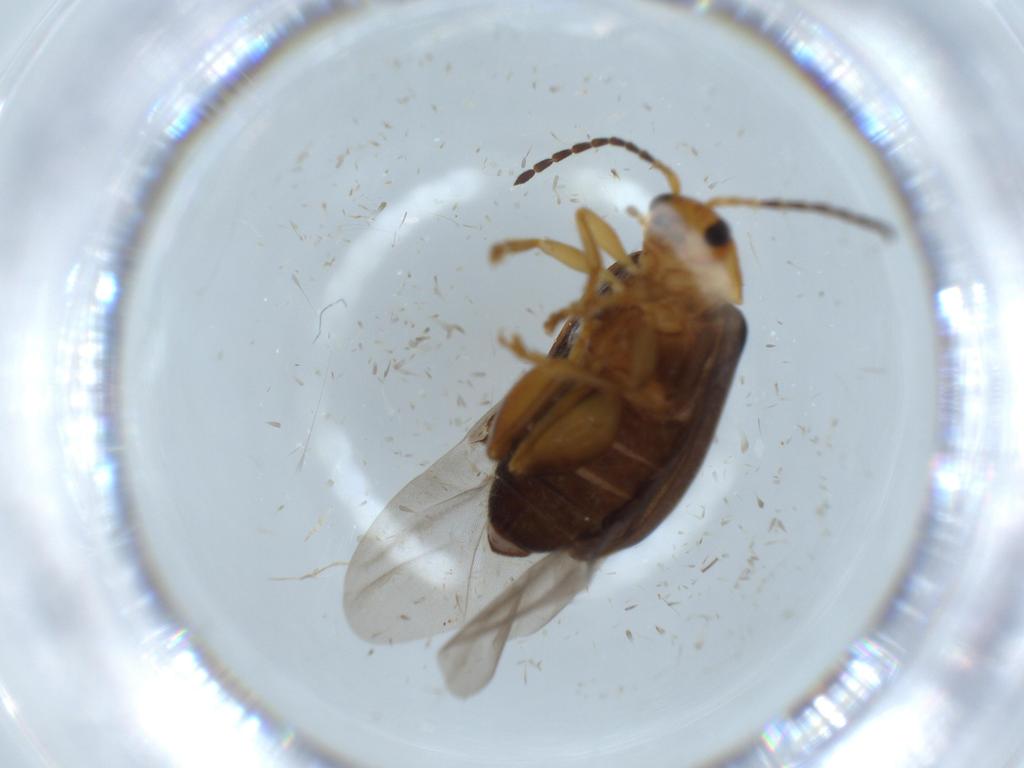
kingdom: Animalia
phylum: Arthropoda
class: Insecta
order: Coleoptera
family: Chrysomelidae
